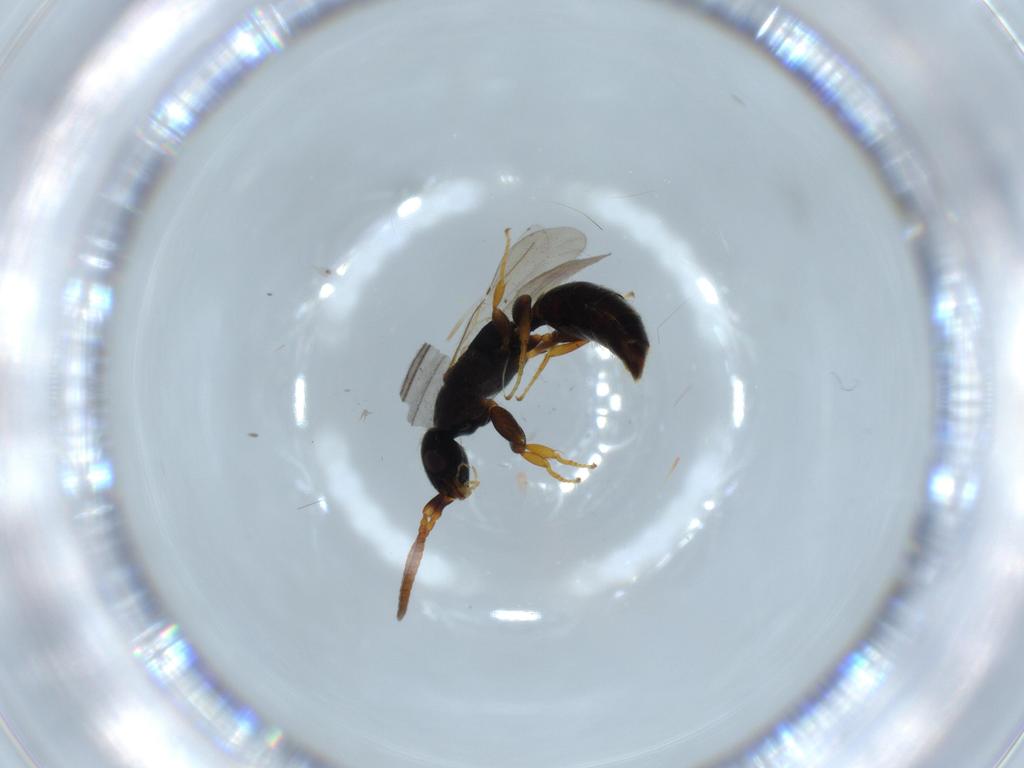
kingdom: Animalia
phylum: Arthropoda
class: Insecta
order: Hymenoptera
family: Bethylidae
